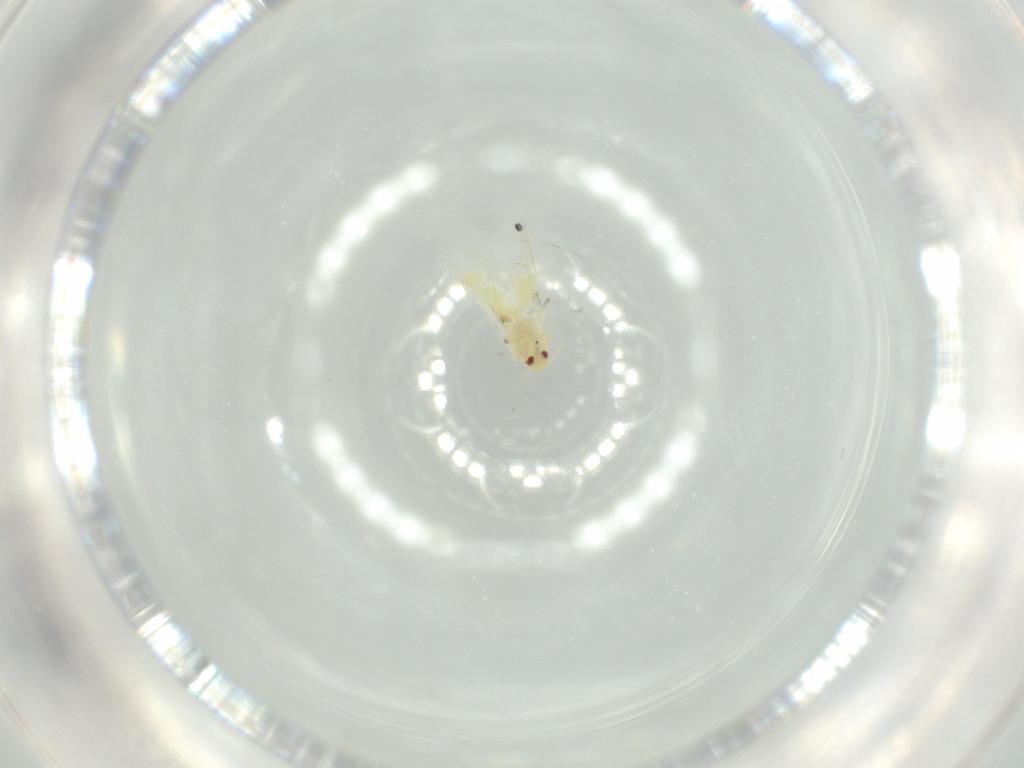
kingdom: Animalia
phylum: Arthropoda
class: Insecta
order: Hemiptera
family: Aleyrodidae
